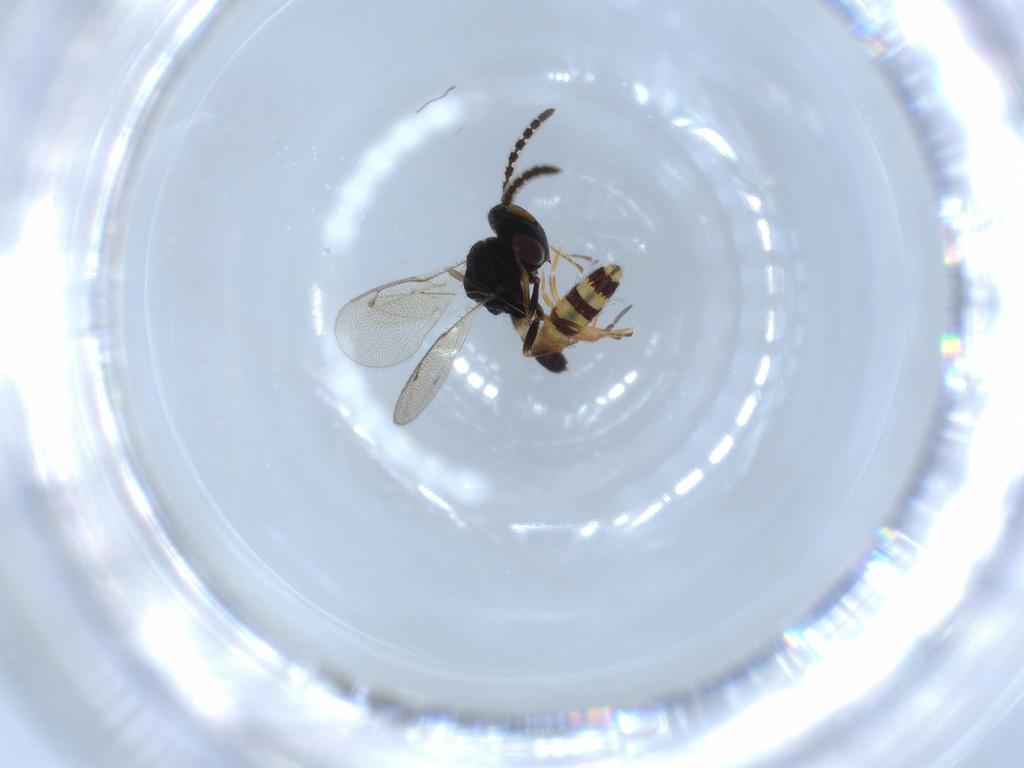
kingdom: Animalia
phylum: Arthropoda
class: Collembola
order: Entomobryomorpha
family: Entomobryidae
